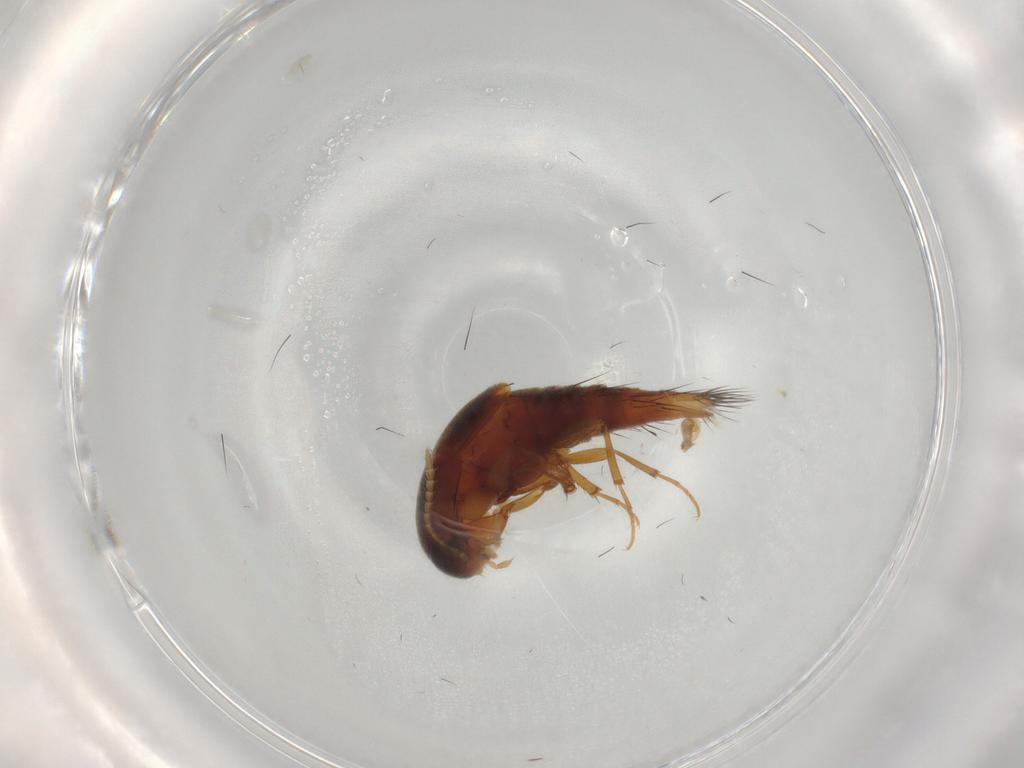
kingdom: Animalia
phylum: Arthropoda
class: Insecta
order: Coleoptera
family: Staphylinidae
